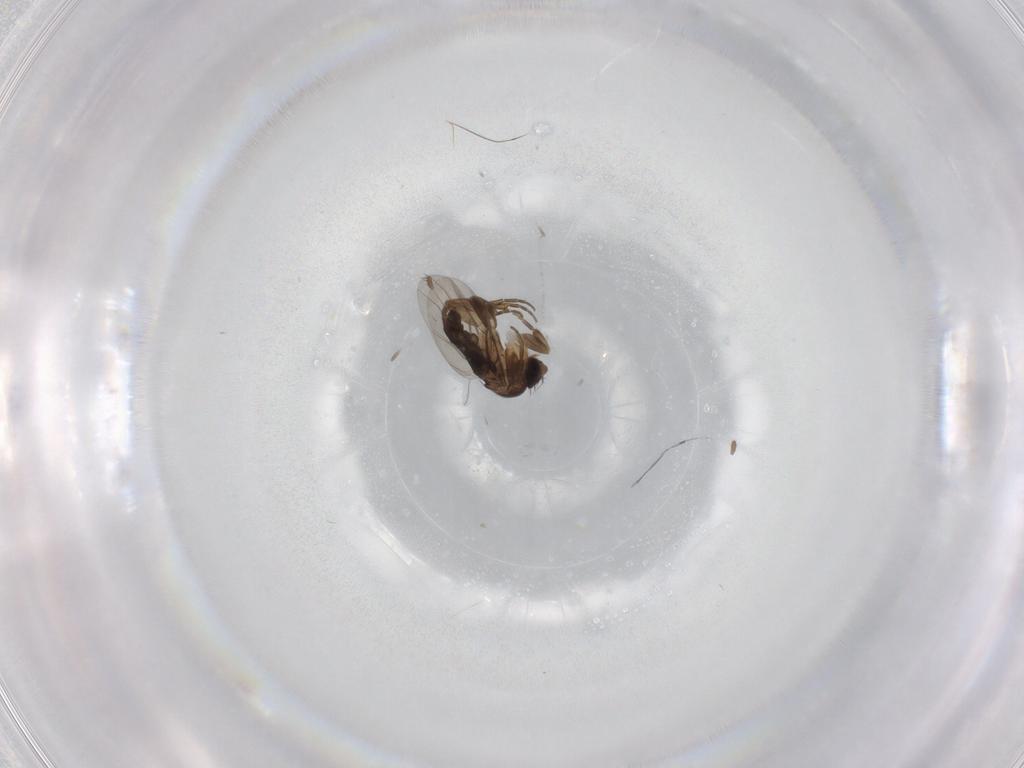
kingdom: Animalia
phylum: Arthropoda
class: Insecta
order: Diptera
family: Psychodidae
